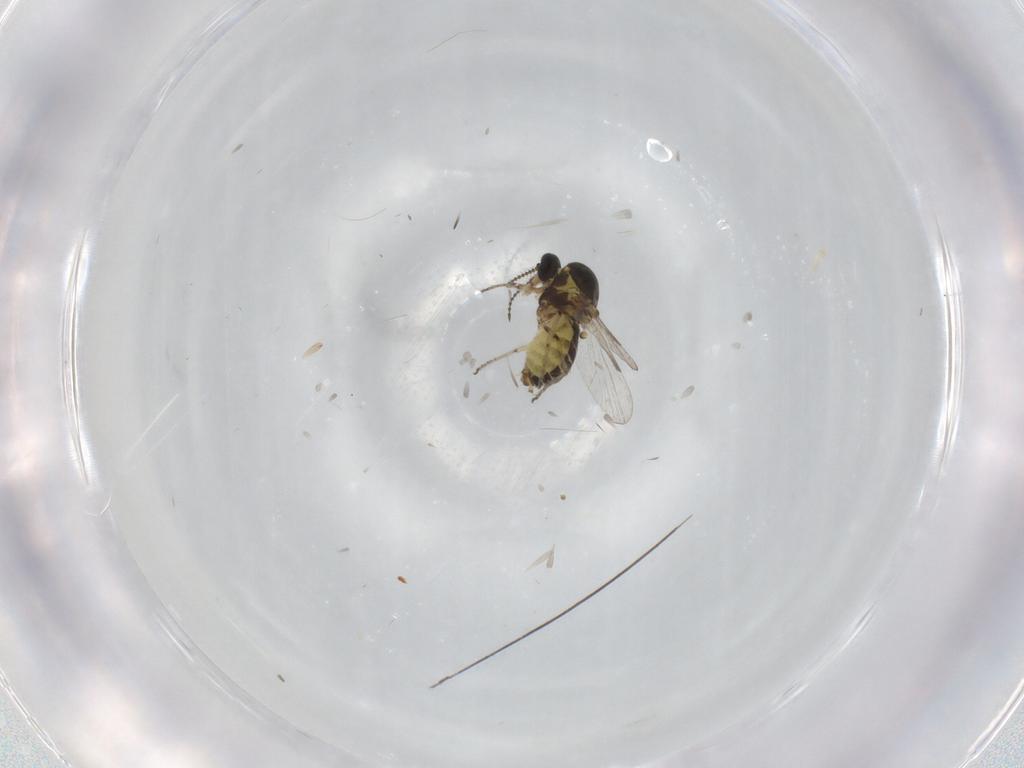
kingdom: Animalia
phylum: Arthropoda
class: Insecta
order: Diptera
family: Chironomidae
